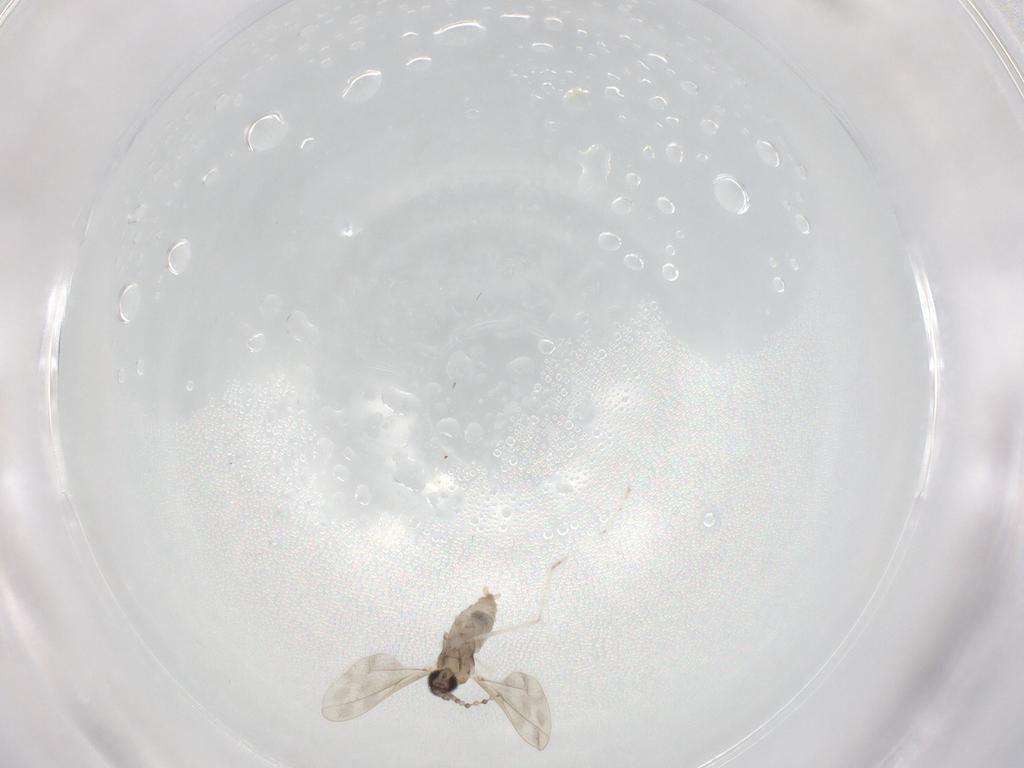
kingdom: Animalia
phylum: Arthropoda
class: Insecta
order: Diptera
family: Cecidomyiidae
